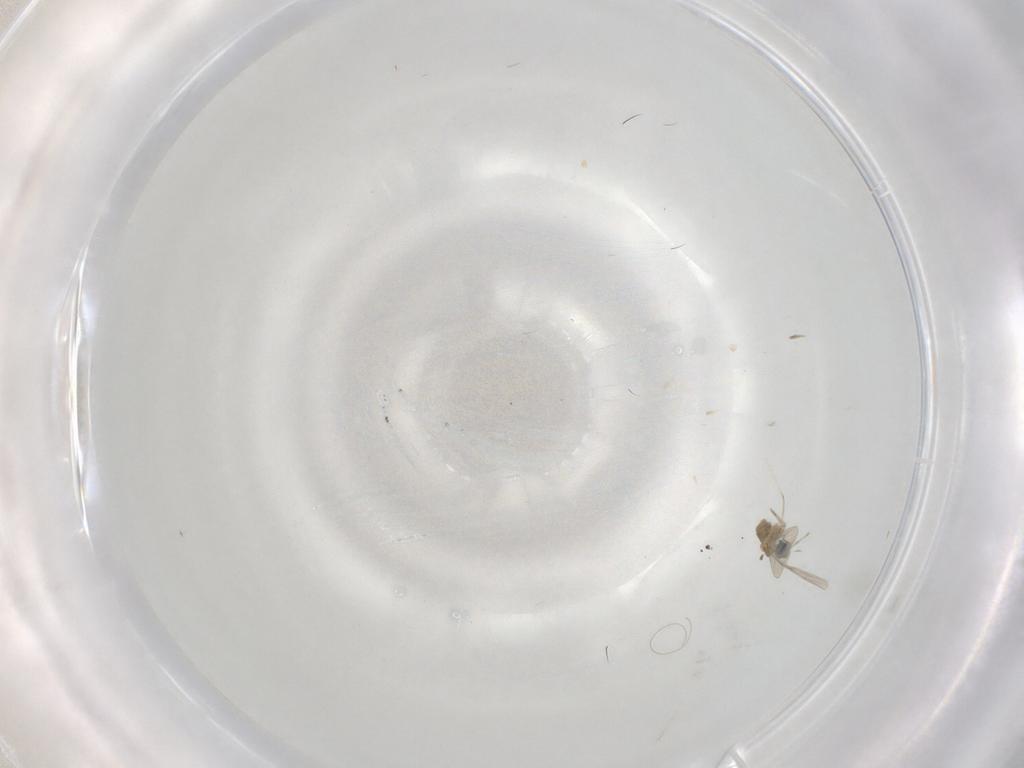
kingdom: Animalia
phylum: Arthropoda
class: Insecta
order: Diptera
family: Cecidomyiidae
